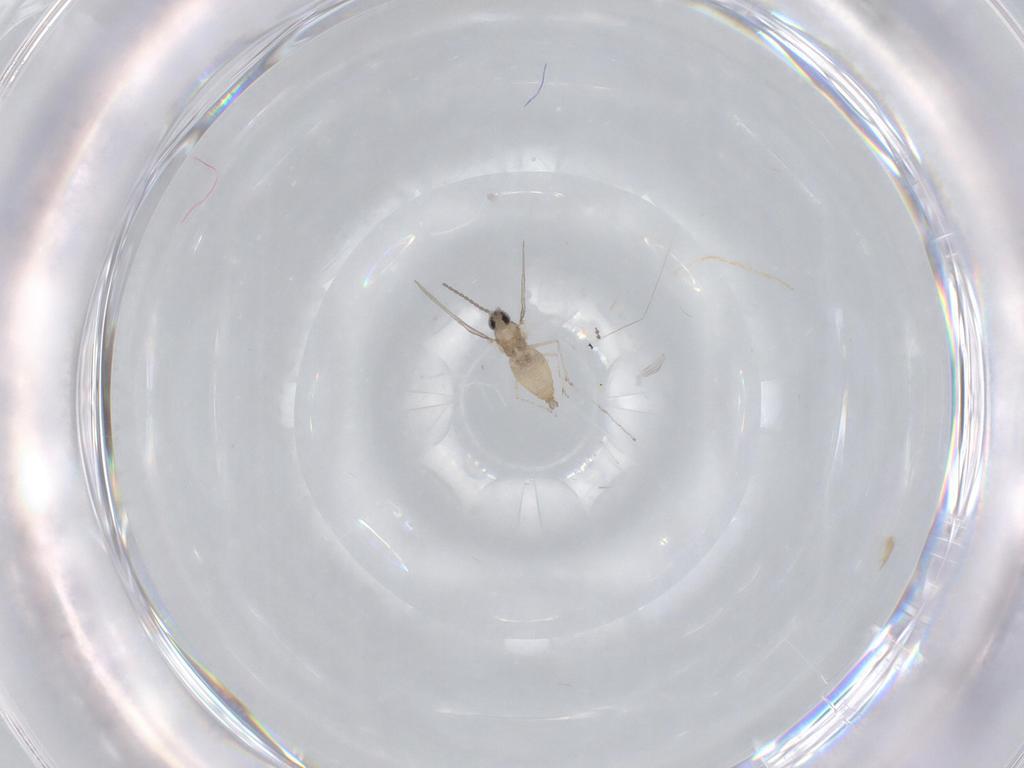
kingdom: Animalia
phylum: Arthropoda
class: Insecta
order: Diptera
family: Cecidomyiidae
